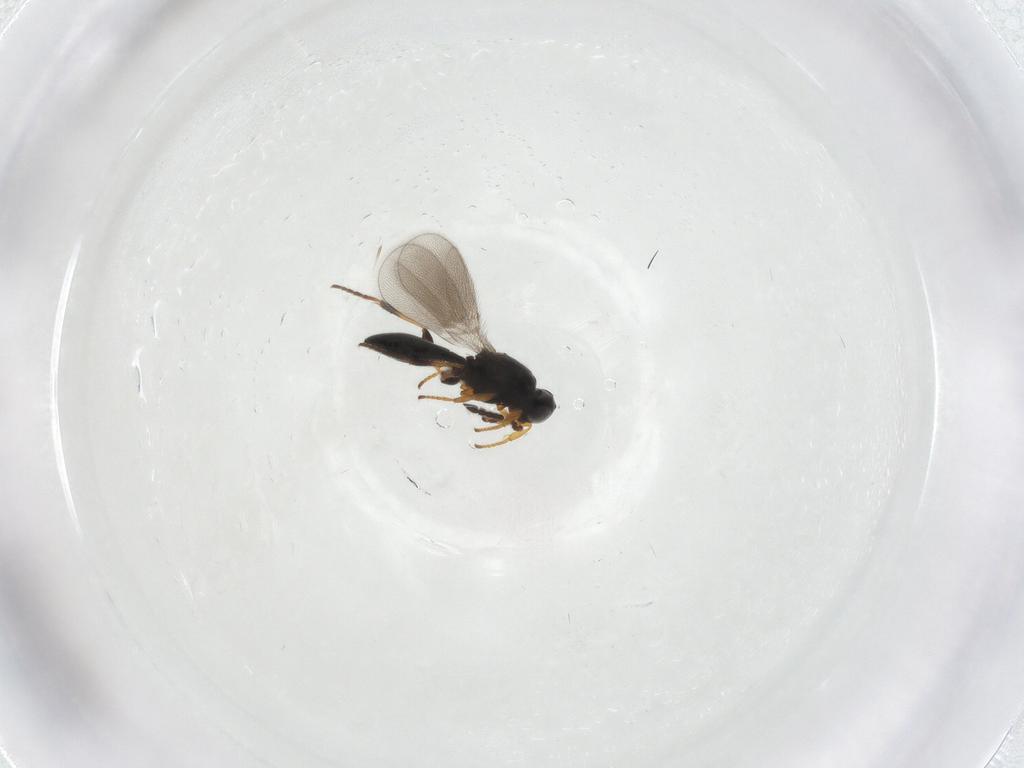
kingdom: Animalia
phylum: Arthropoda
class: Insecta
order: Hymenoptera
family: Platygastridae
